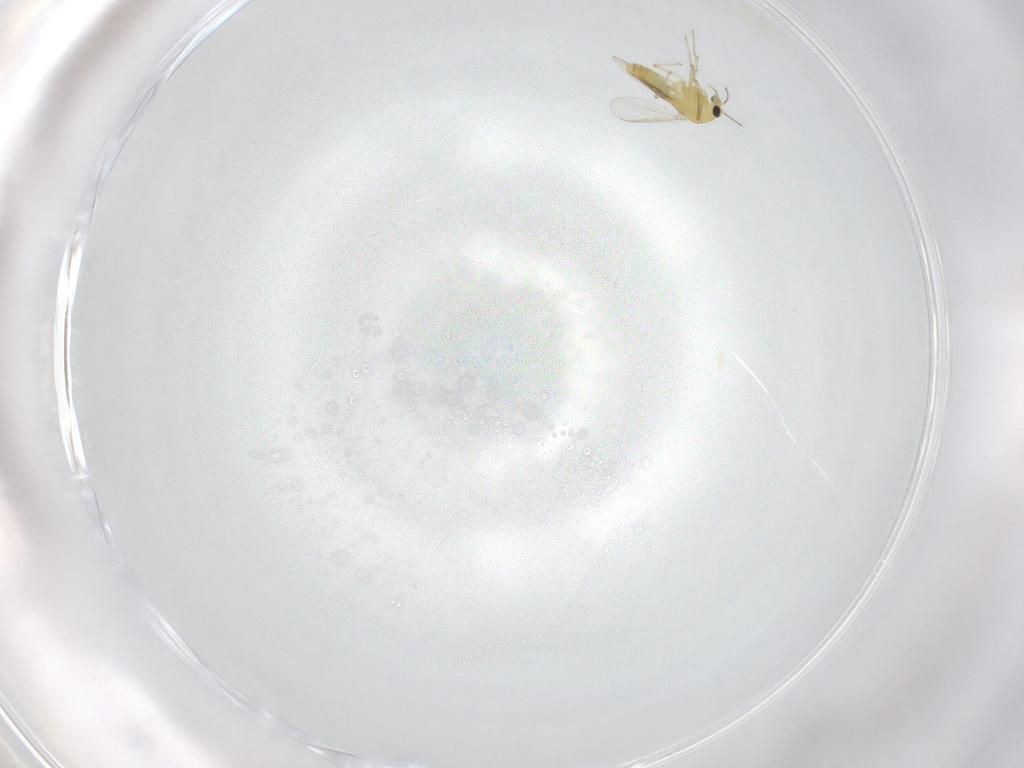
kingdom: Animalia
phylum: Arthropoda
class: Insecta
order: Diptera
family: Chironomidae
